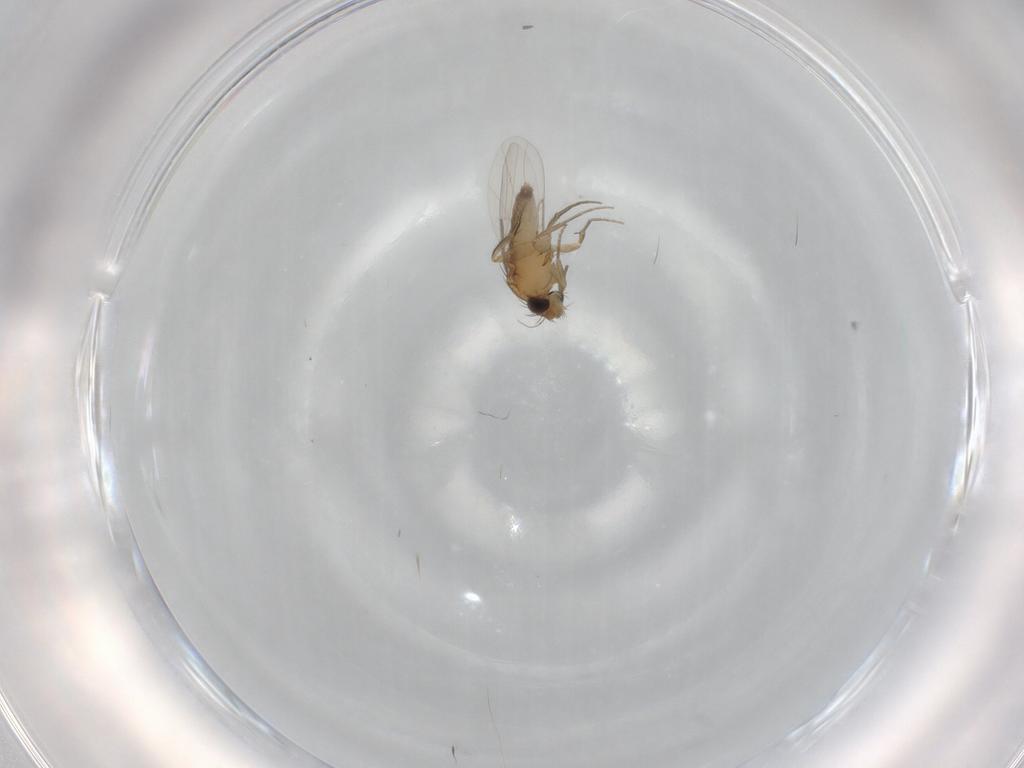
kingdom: Animalia
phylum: Arthropoda
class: Insecta
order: Diptera
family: Phoridae
